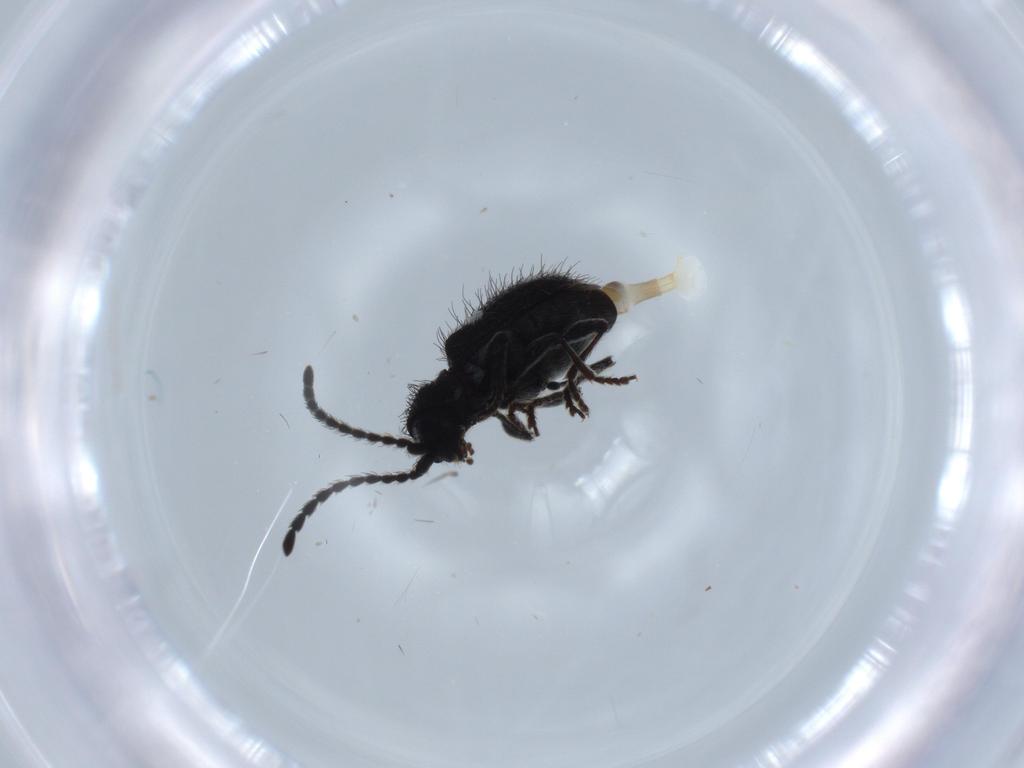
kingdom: Animalia
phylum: Arthropoda
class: Insecta
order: Coleoptera
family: Ptinidae
